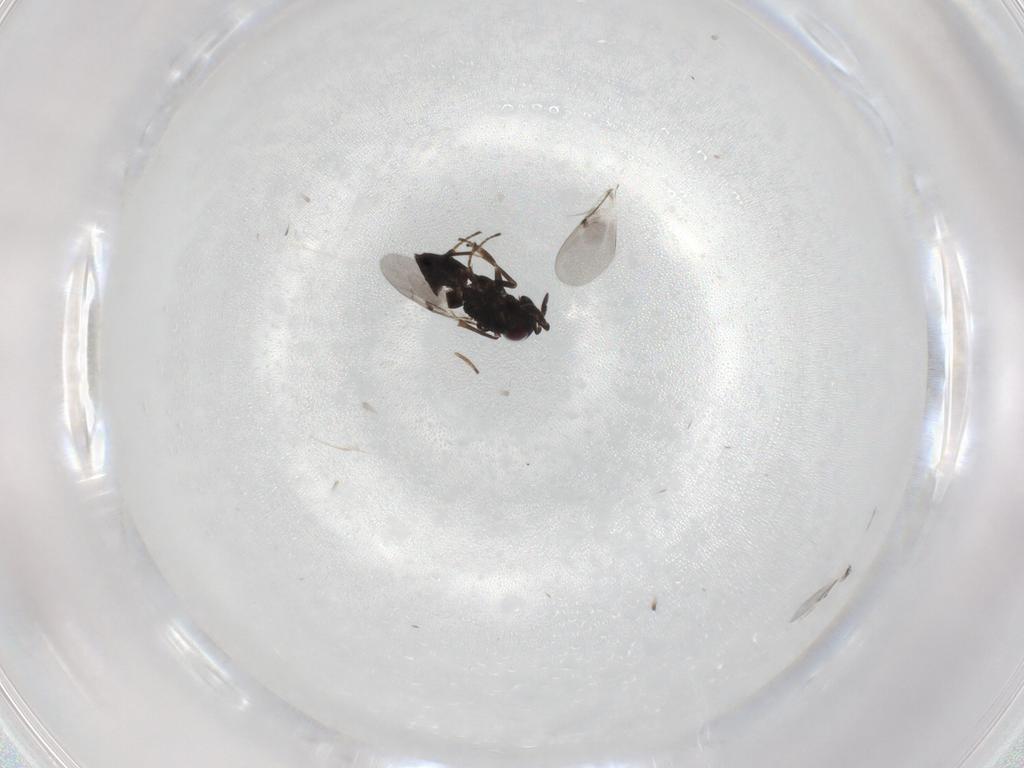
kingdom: Animalia
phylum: Arthropoda
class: Insecta
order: Hymenoptera
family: Encyrtidae
